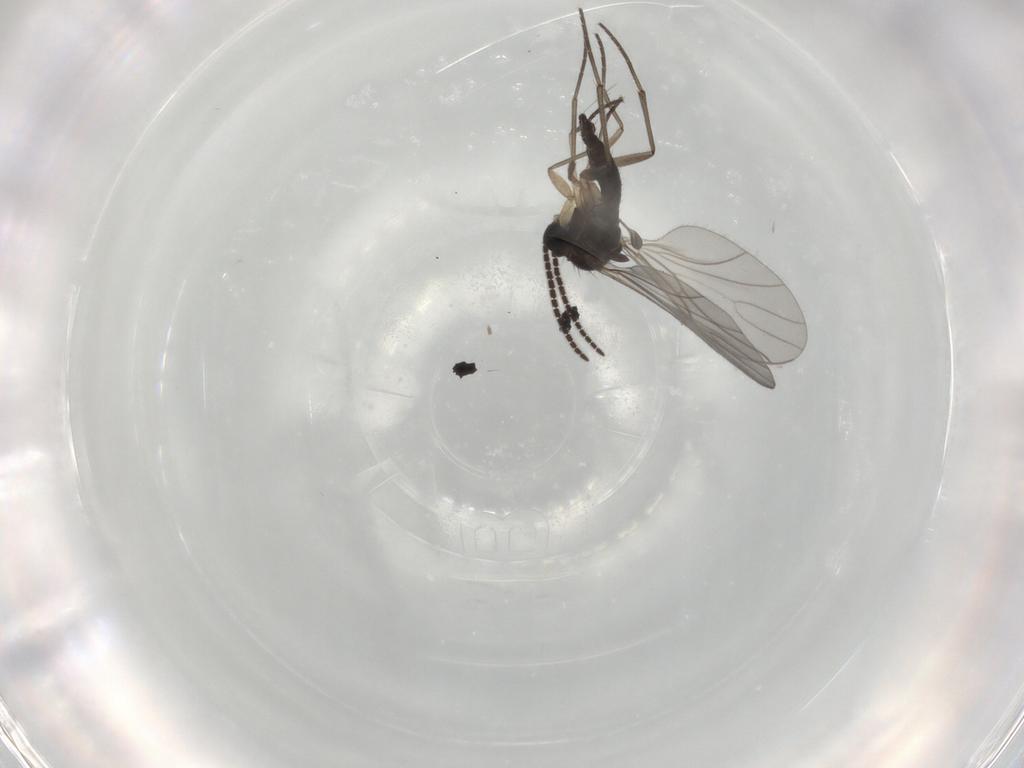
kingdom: Animalia
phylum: Arthropoda
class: Insecta
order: Diptera
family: Sciaridae
